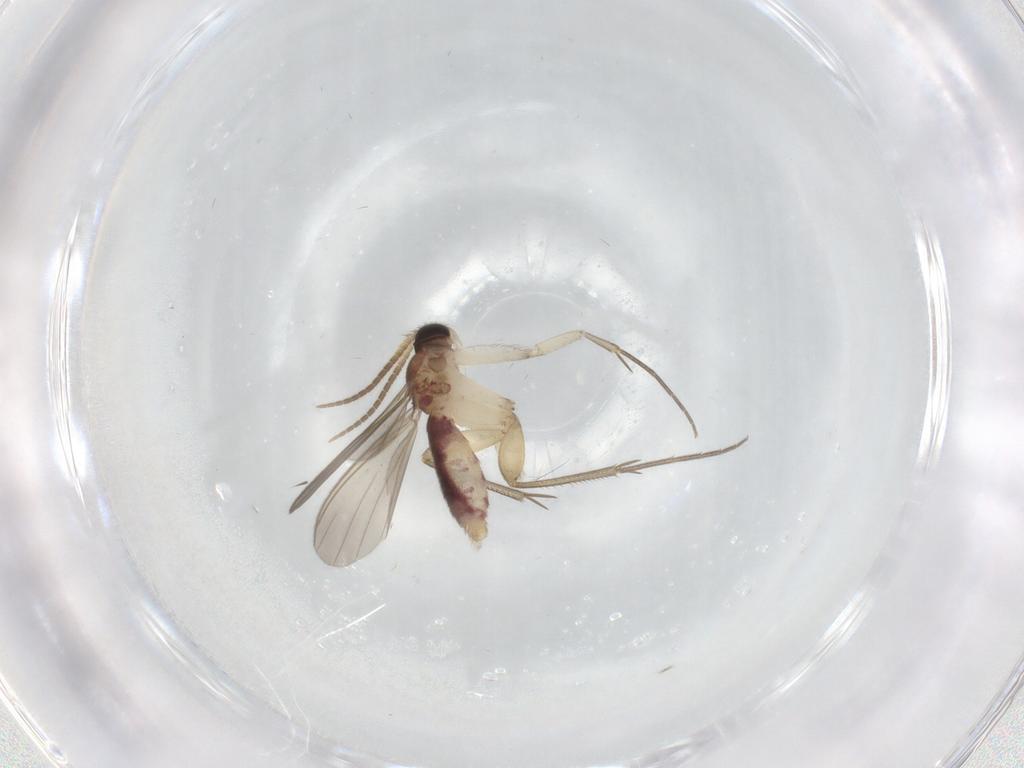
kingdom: Animalia
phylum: Arthropoda
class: Insecta
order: Diptera
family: Mycetophilidae
